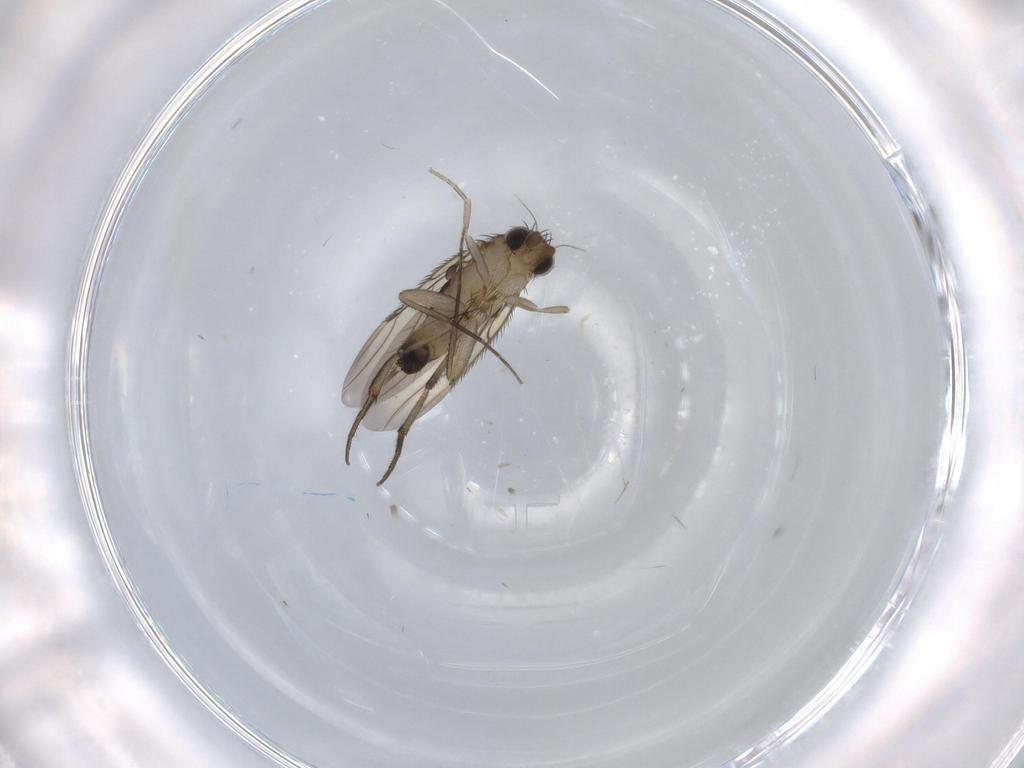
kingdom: Animalia
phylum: Arthropoda
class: Insecta
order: Diptera
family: Phoridae
